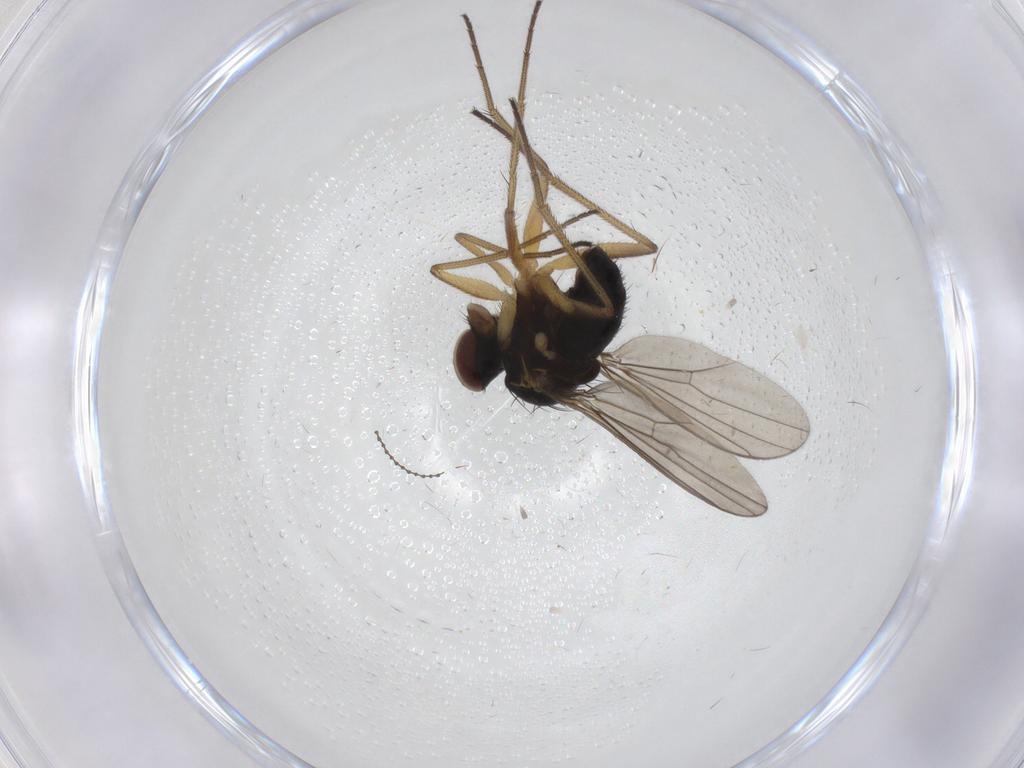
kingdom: Animalia
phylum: Arthropoda
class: Insecta
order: Diptera
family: Dolichopodidae
